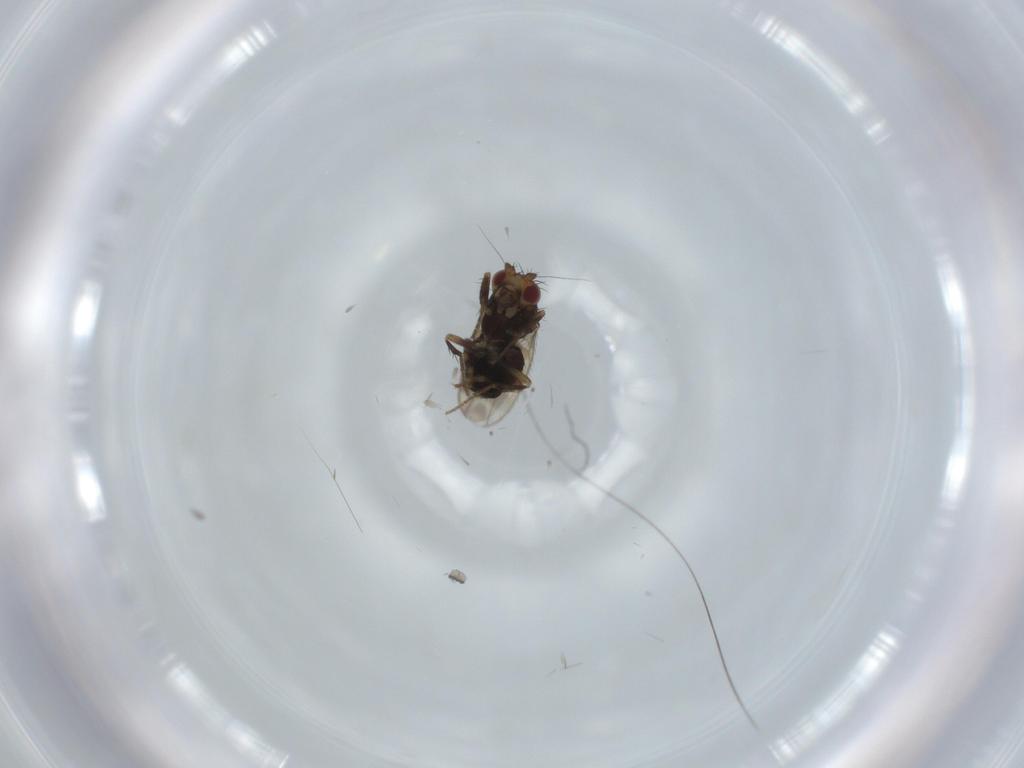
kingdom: Animalia
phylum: Arthropoda
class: Insecta
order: Diptera
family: Sphaeroceridae
